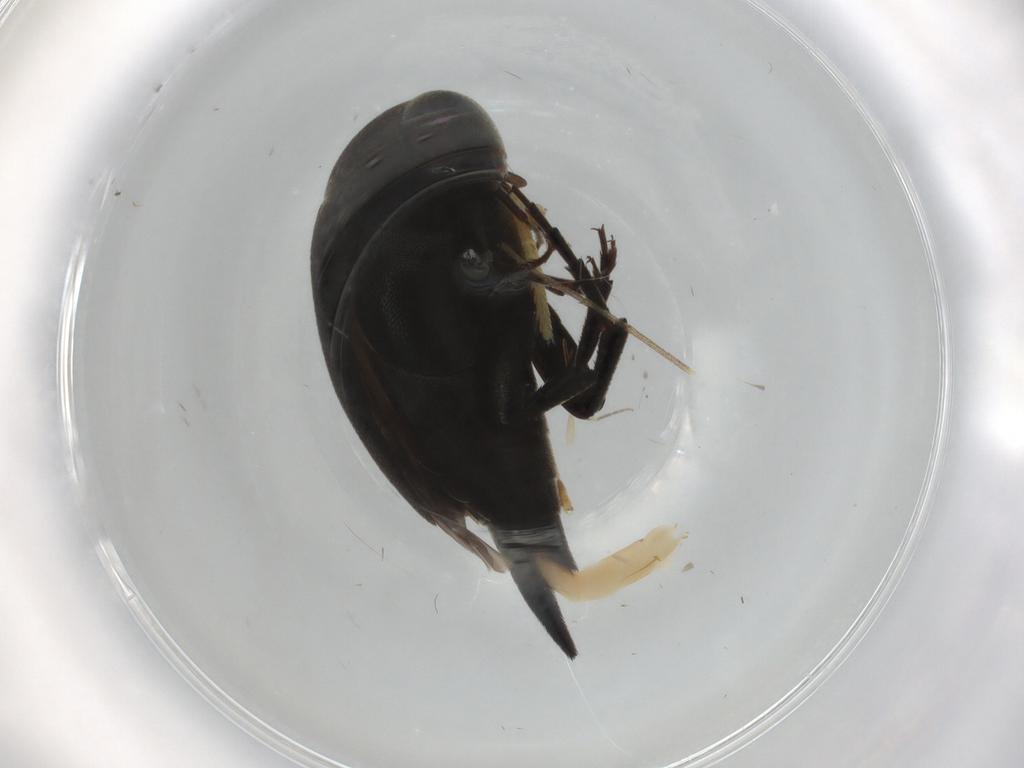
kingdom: Animalia
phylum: Arthropoda
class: Insecta
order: Coleoptera
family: Mordellidae
